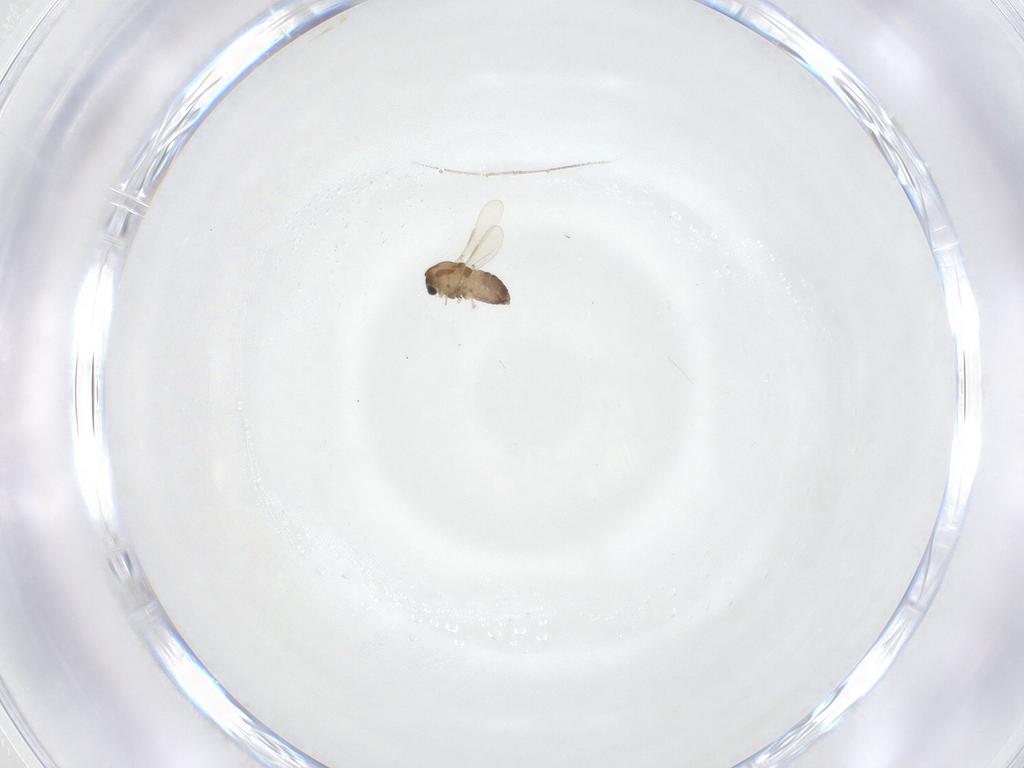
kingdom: Animalia
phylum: Arthropoda
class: Insecta
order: Diptera
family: Chironomidae
